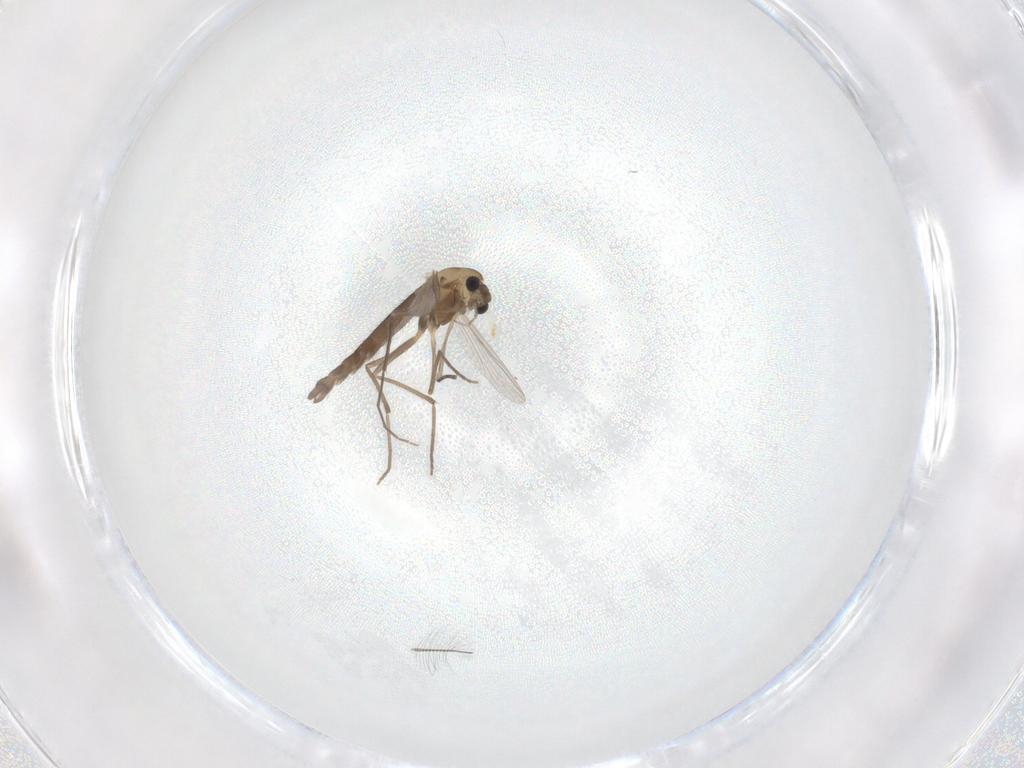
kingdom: Animalia
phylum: Arthropoda
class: Insecta
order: Diptera
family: Chironomidae
